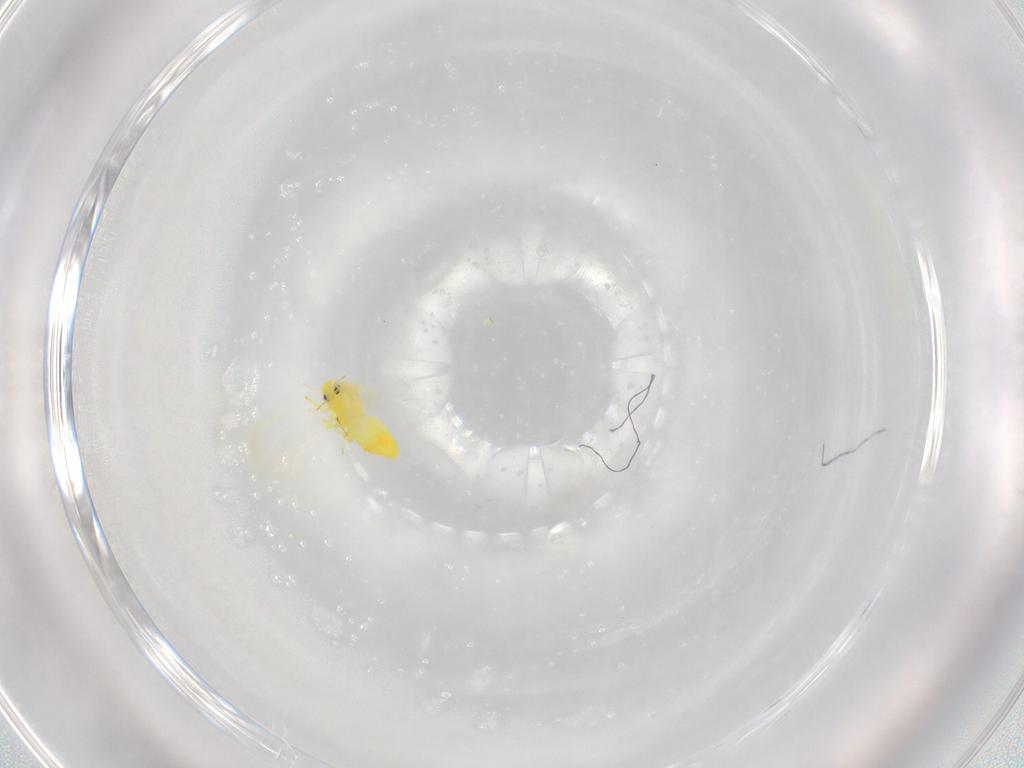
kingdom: Animalia
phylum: Arthropoda
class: Insecta
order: Hemiptera
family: Aleyrodidae
